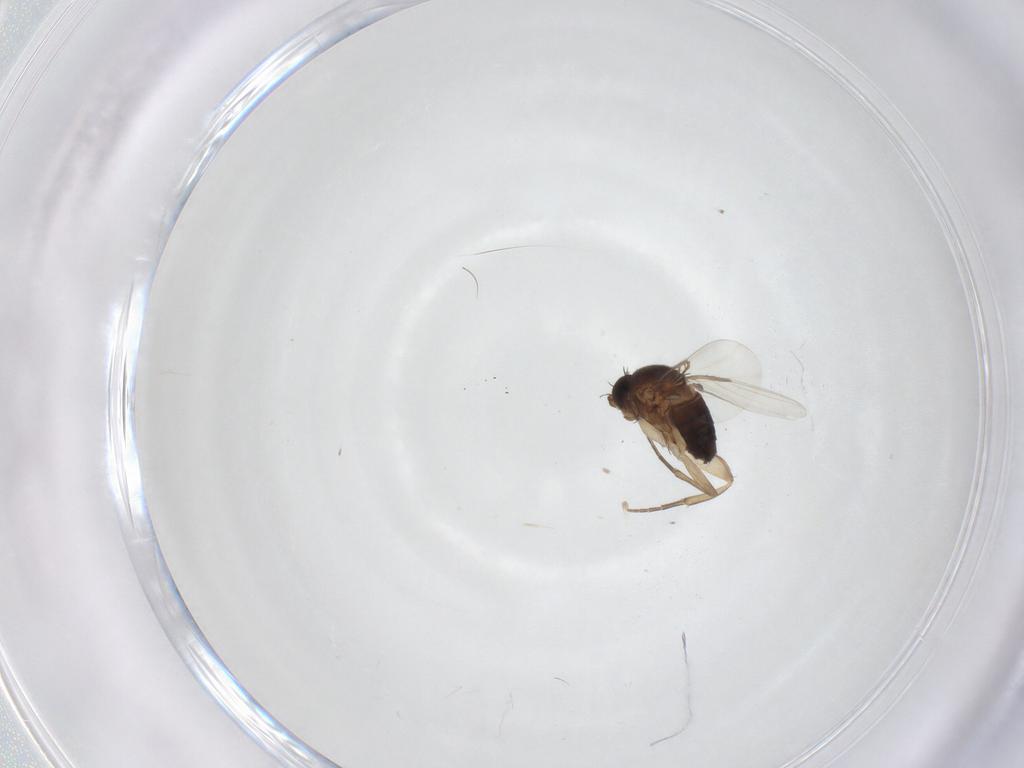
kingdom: Animalia
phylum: Arthropoda
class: Insecta
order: Diptera
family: Phoridae
